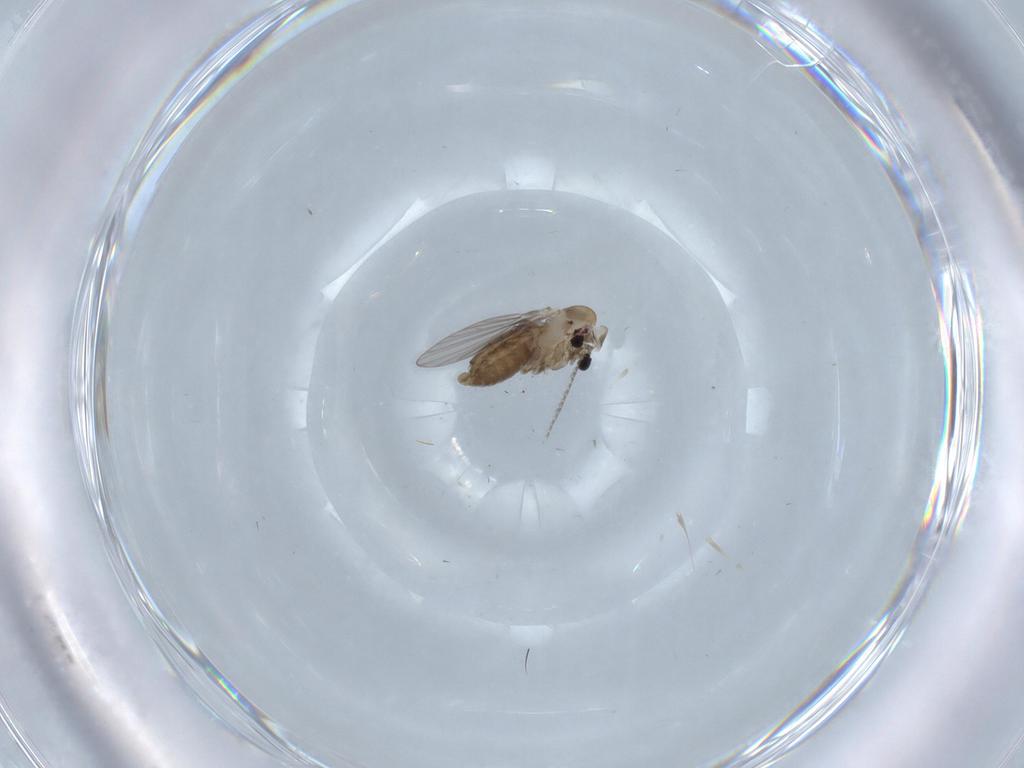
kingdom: Animalia
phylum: Arthropoda
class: Insecta
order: Diptera
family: Psychodidae
